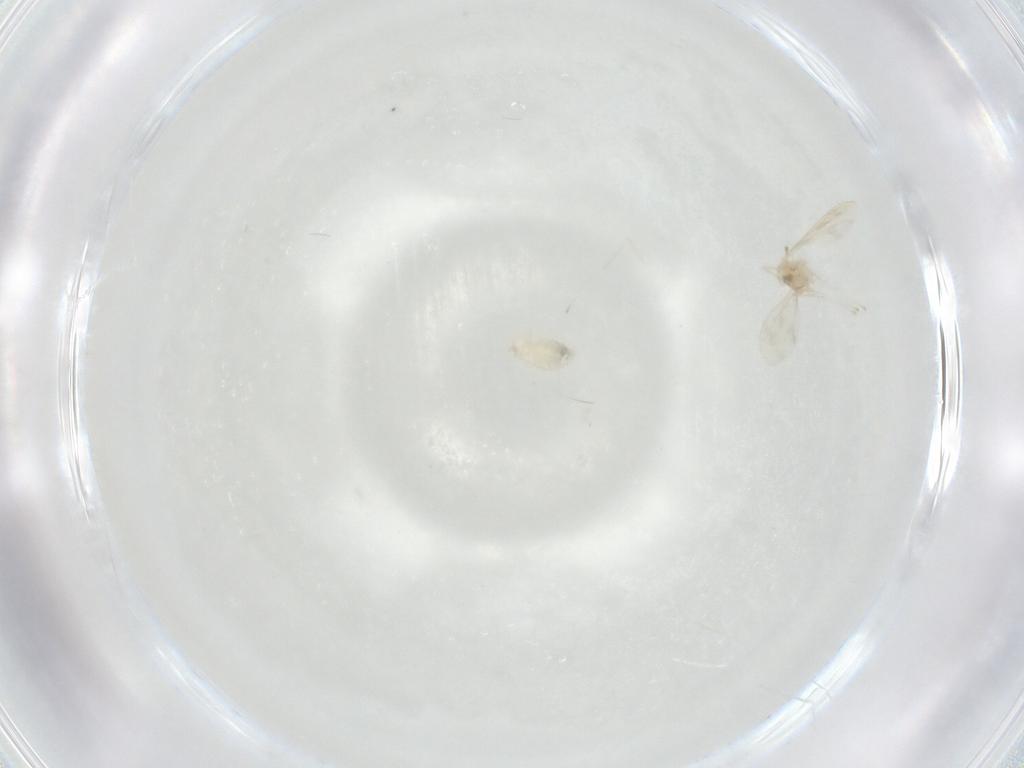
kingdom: Animalia
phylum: Arthropoda
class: Insecta
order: Diptera
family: Cecidomyiidae
